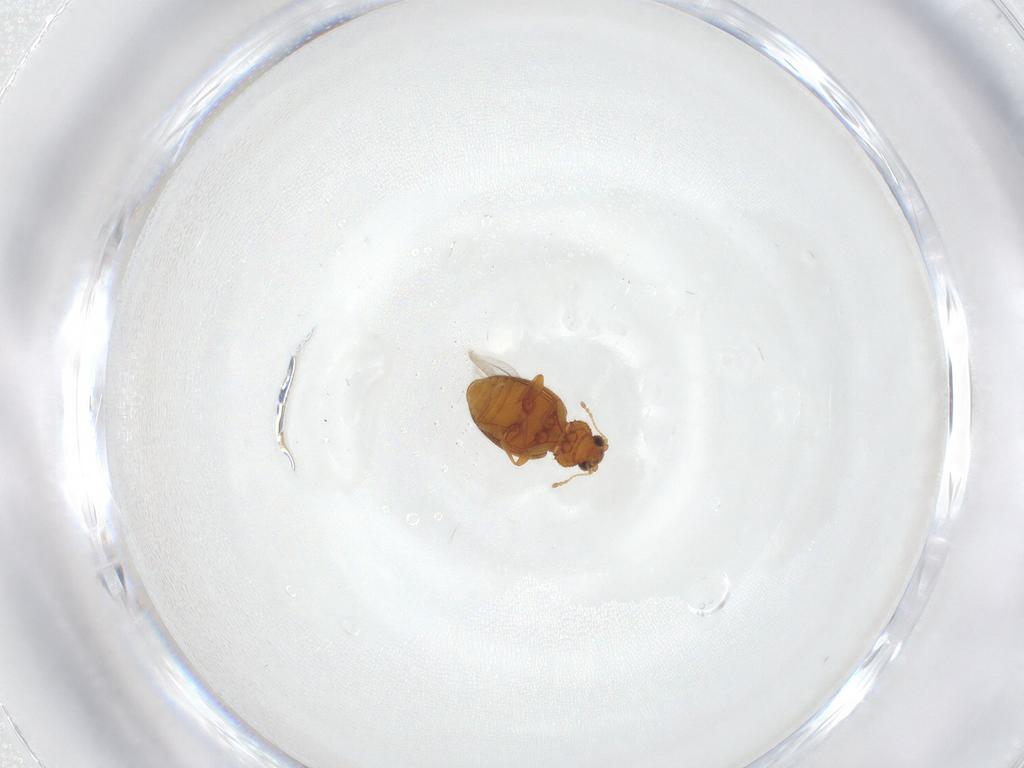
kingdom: Animalia
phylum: Arthropoda
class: Insecta
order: Coleoptera
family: Latridiidae
